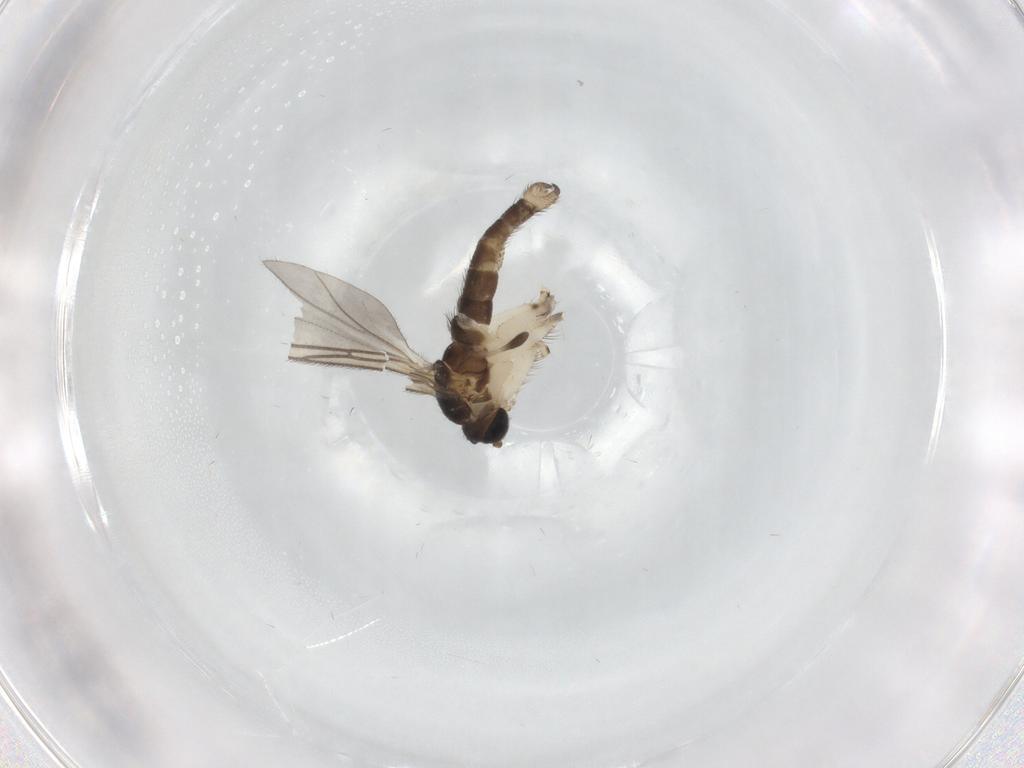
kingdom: Animalia
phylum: Arthropoda
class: Insecta
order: Diptera
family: Sciaridae
